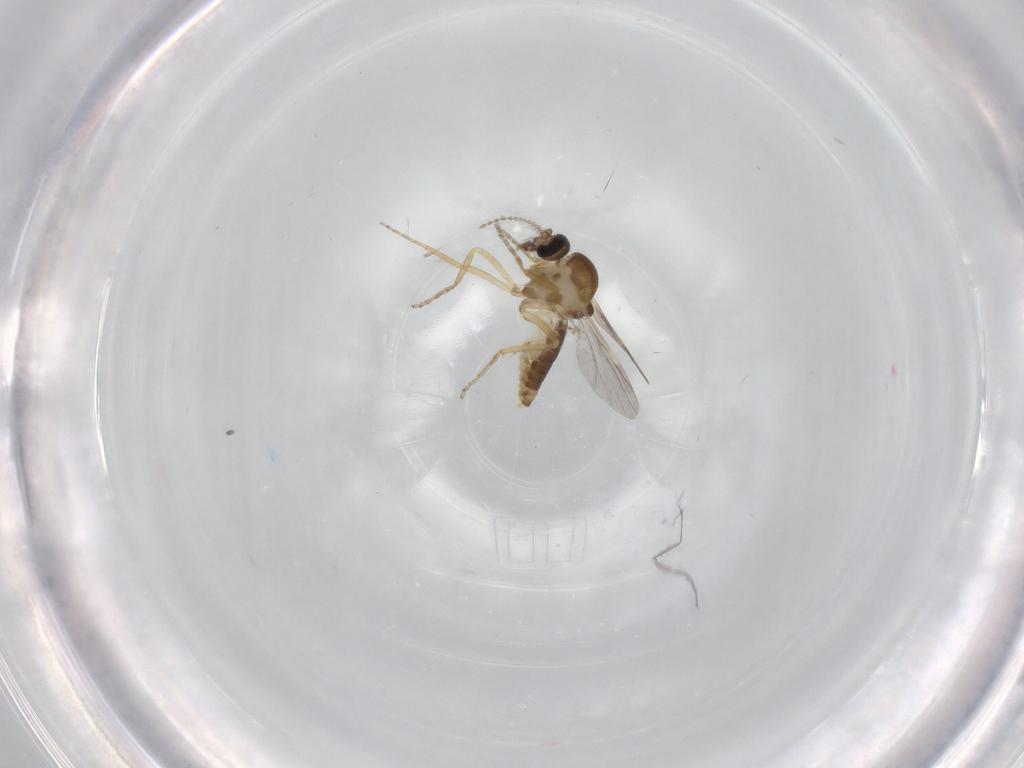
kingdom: Animalia
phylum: Arthropoda
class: Insecta
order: Diptera
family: Ceratopogonidae
